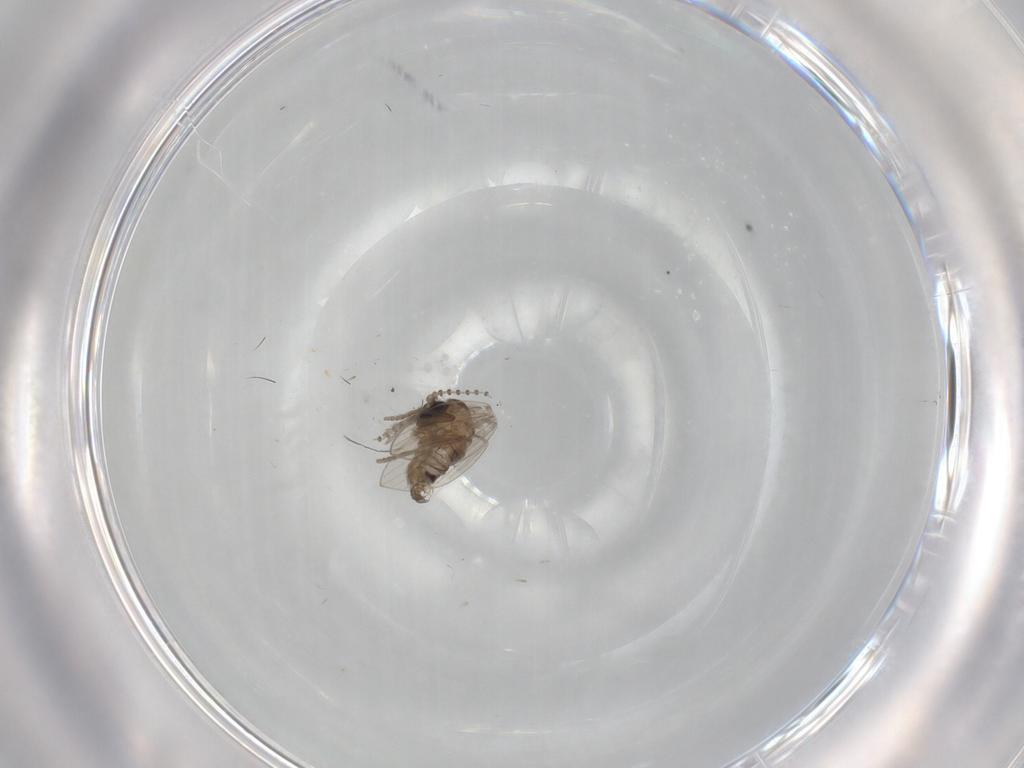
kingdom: Animalia
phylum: Arthropoda
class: Insecta
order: Diptera
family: Psychodidae
